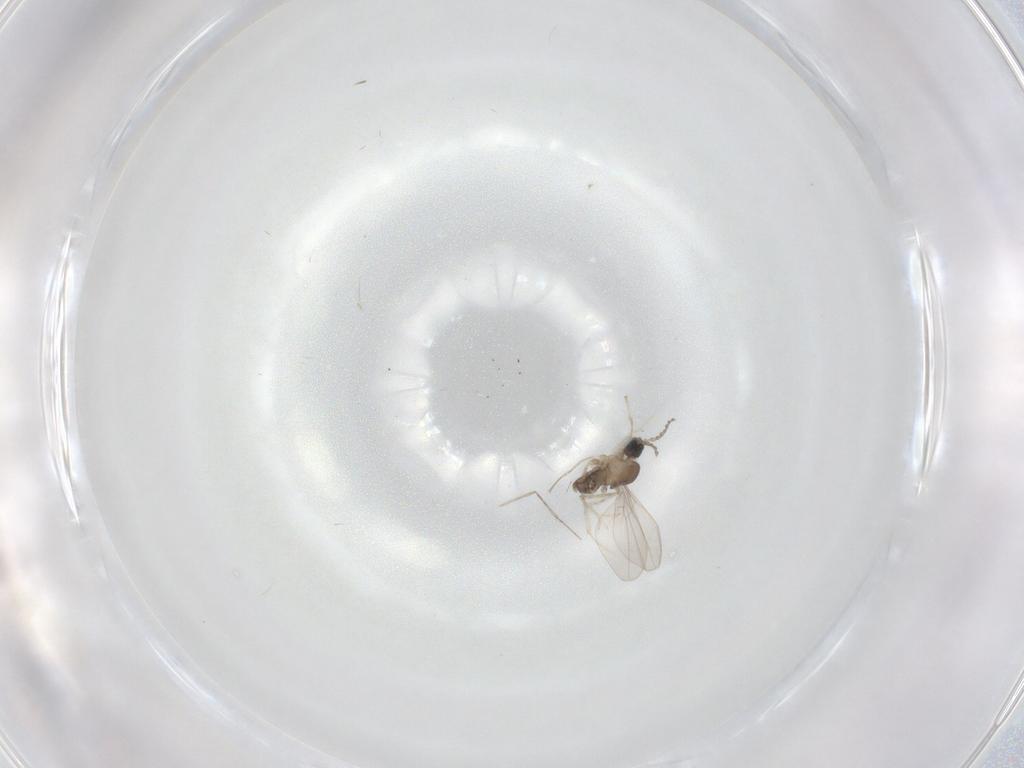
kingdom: Animalia
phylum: Arthropoda
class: Insecta
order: Diptera
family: Cecidomyiidae
